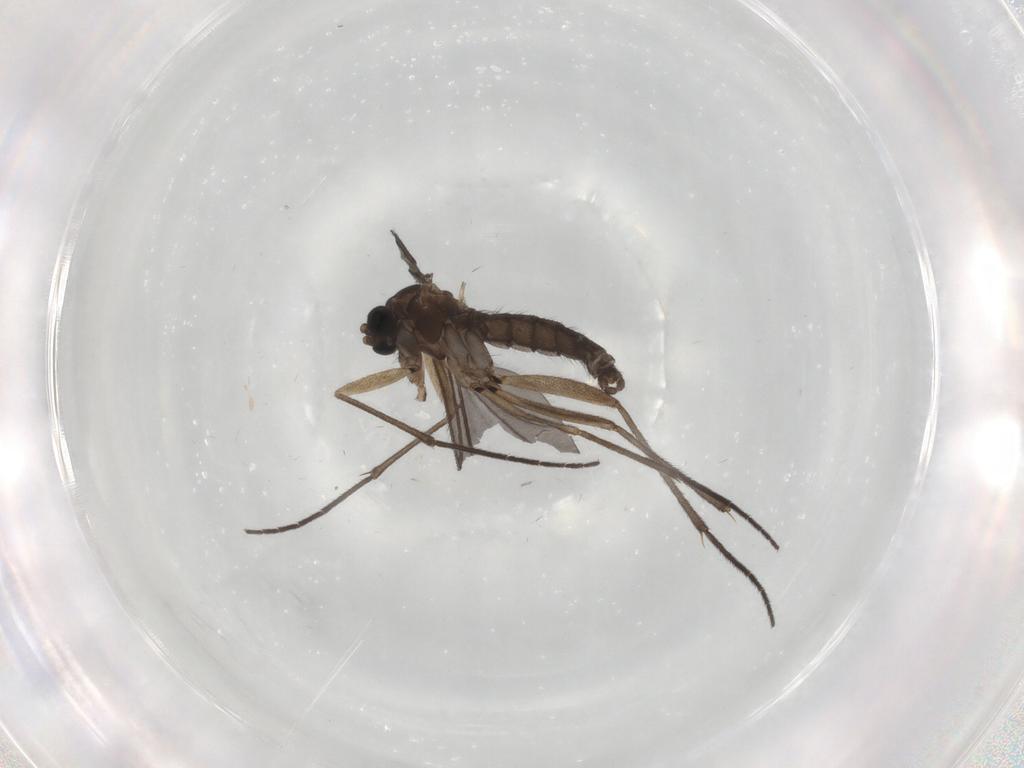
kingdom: Animalia
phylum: Arthropoda
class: Insecta
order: Diptera
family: Sciaridae
